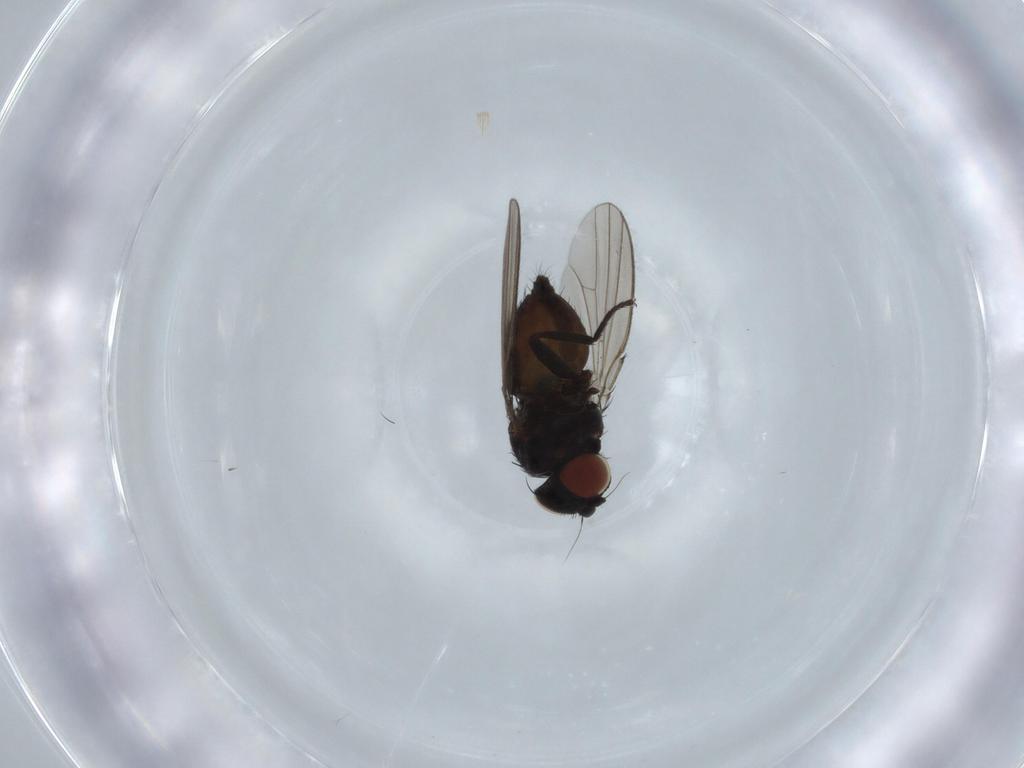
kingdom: Animalia
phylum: Arthropoda
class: Insecta
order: Diptera
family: Milichiidae
